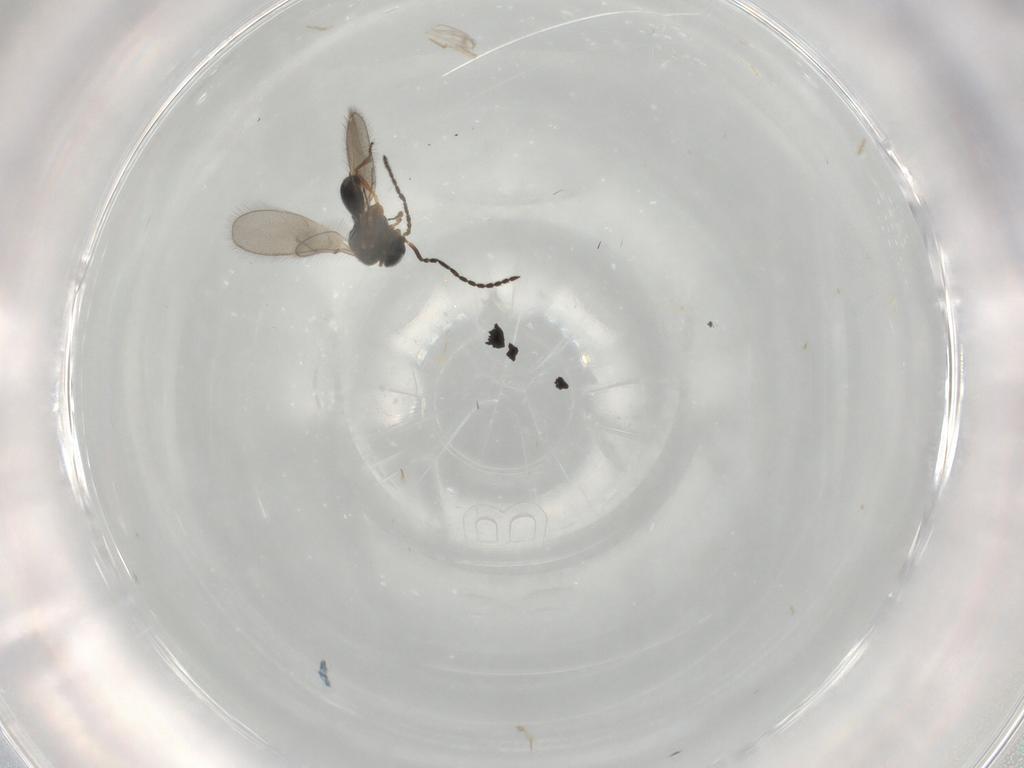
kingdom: Animalia
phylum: Arthropoda
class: Insecta
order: Hymenoptera
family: Scelionidae
